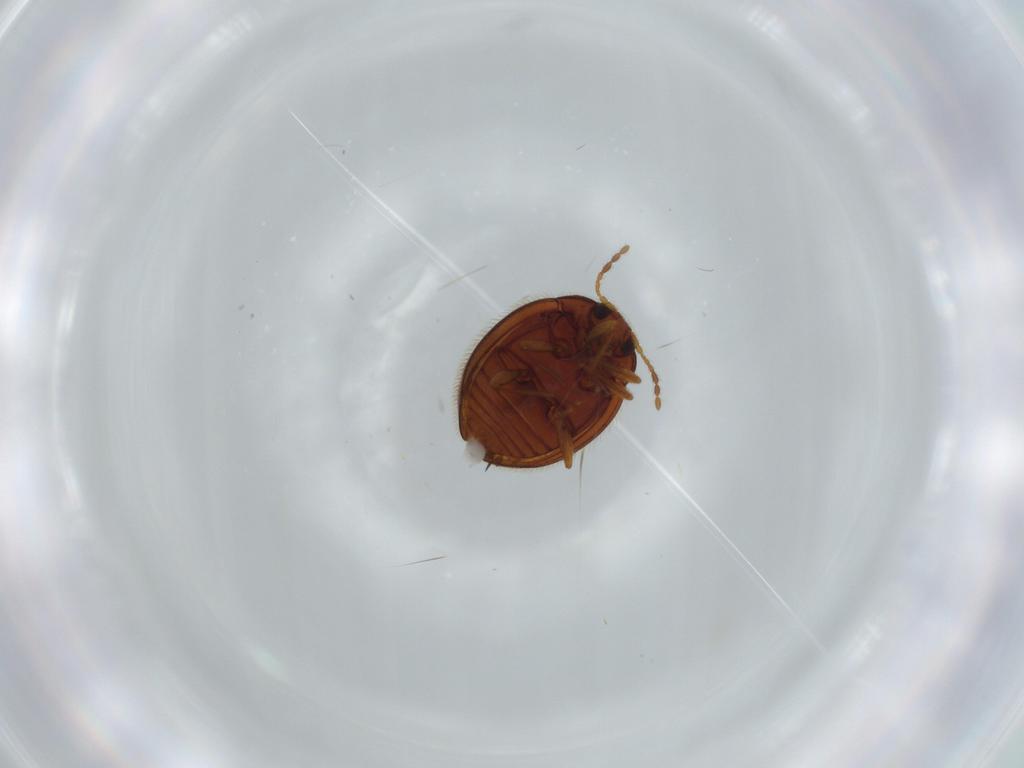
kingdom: Animalia
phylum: Arthropoda
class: Insecta
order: Coleoptera
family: Anamorphidae
